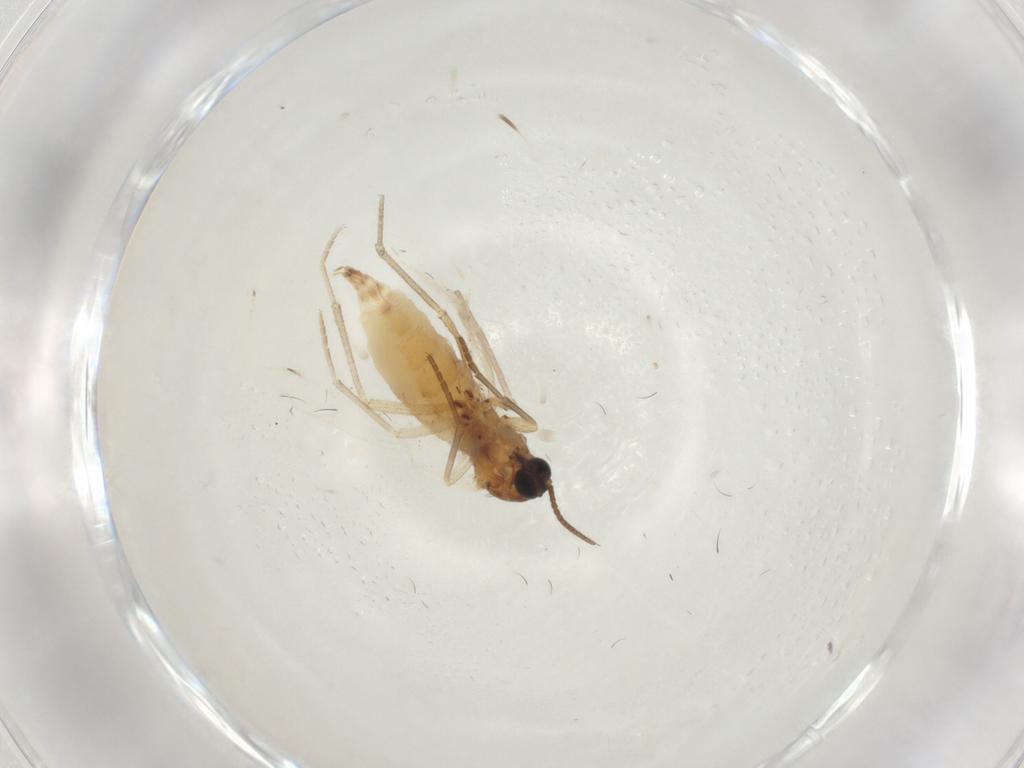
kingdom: Animalia
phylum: Arthropoda
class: Insecta
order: Diptera
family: Sciaridae
